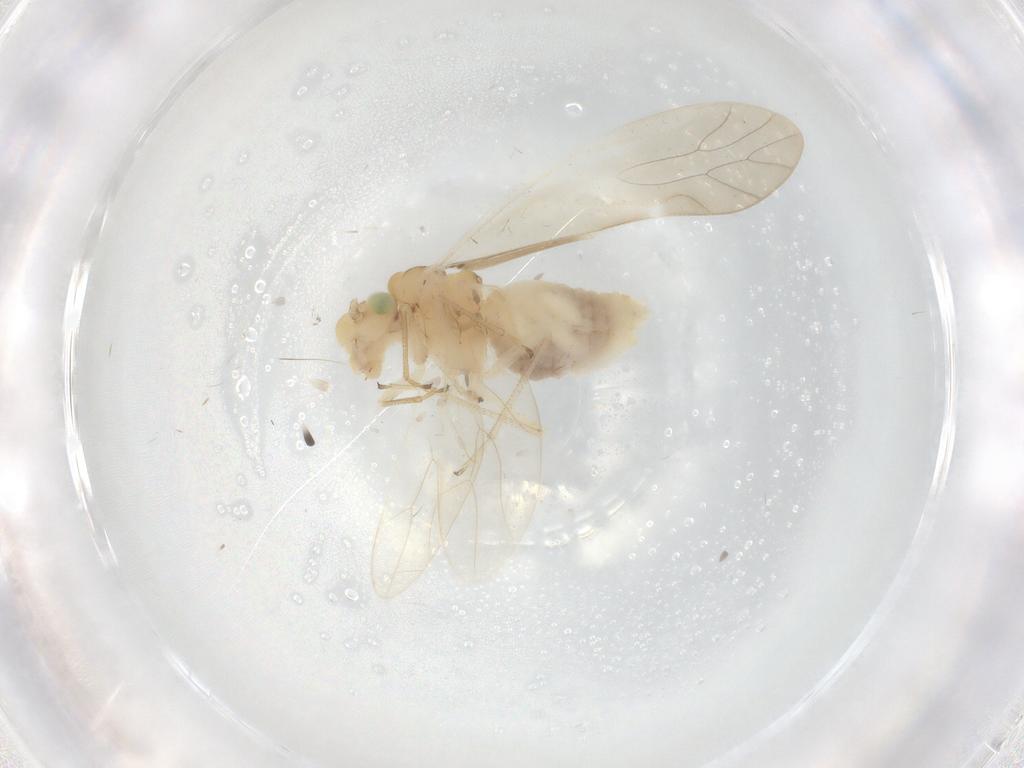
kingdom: Animalia
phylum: Arthropoda
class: Insecta
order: Psocodea
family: Caeciliusidae
